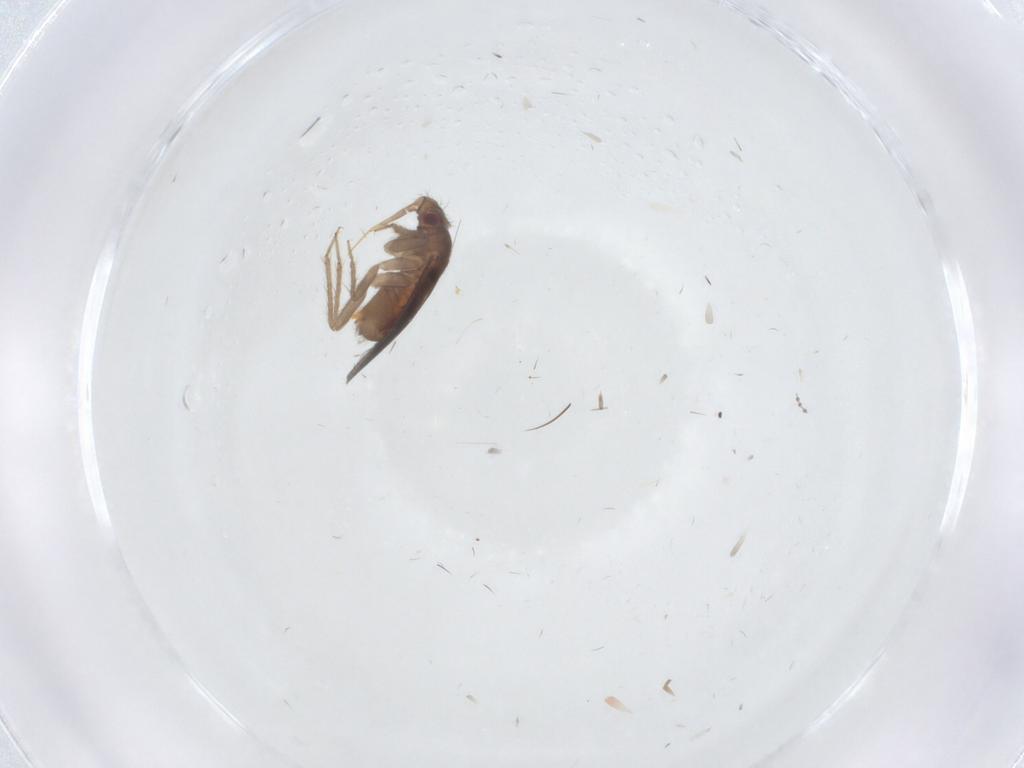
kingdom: Animalia
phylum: Arthropoda
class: Insecta
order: Hemiptera
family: Ceratocombidae
